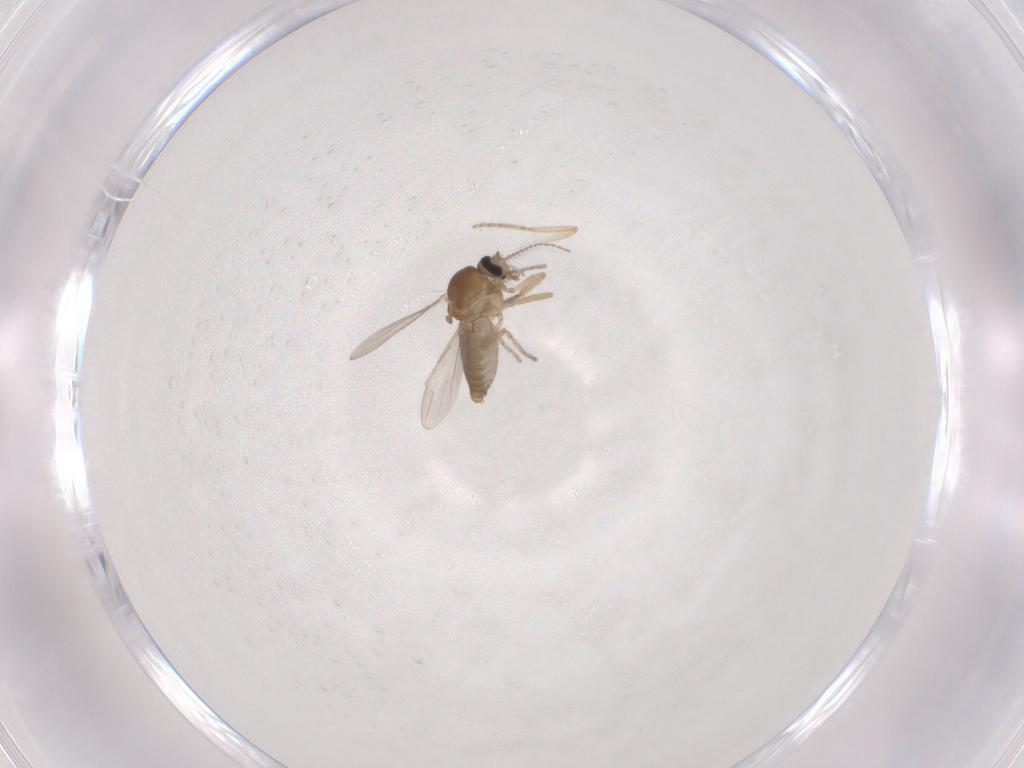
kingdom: Animalia
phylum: Arthropoda
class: Insecta
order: Diptera
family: Ceratopogonidae
